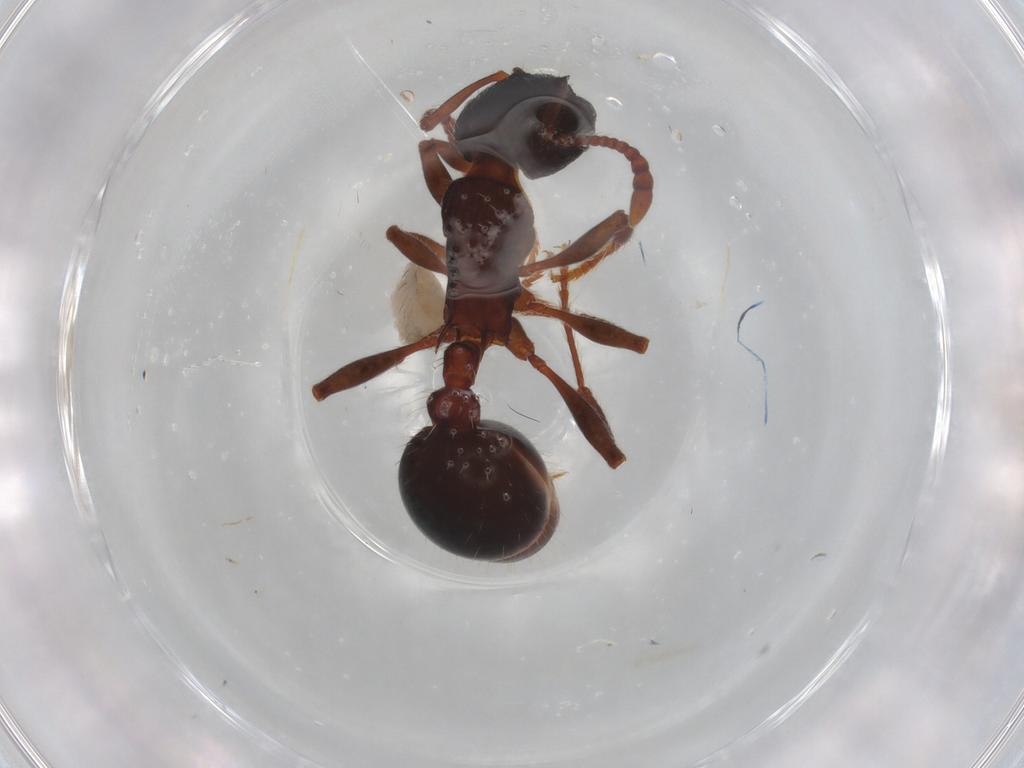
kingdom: Animalia
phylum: Arthropoda
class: Insecta
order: Hymenoptera
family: Formicidae
